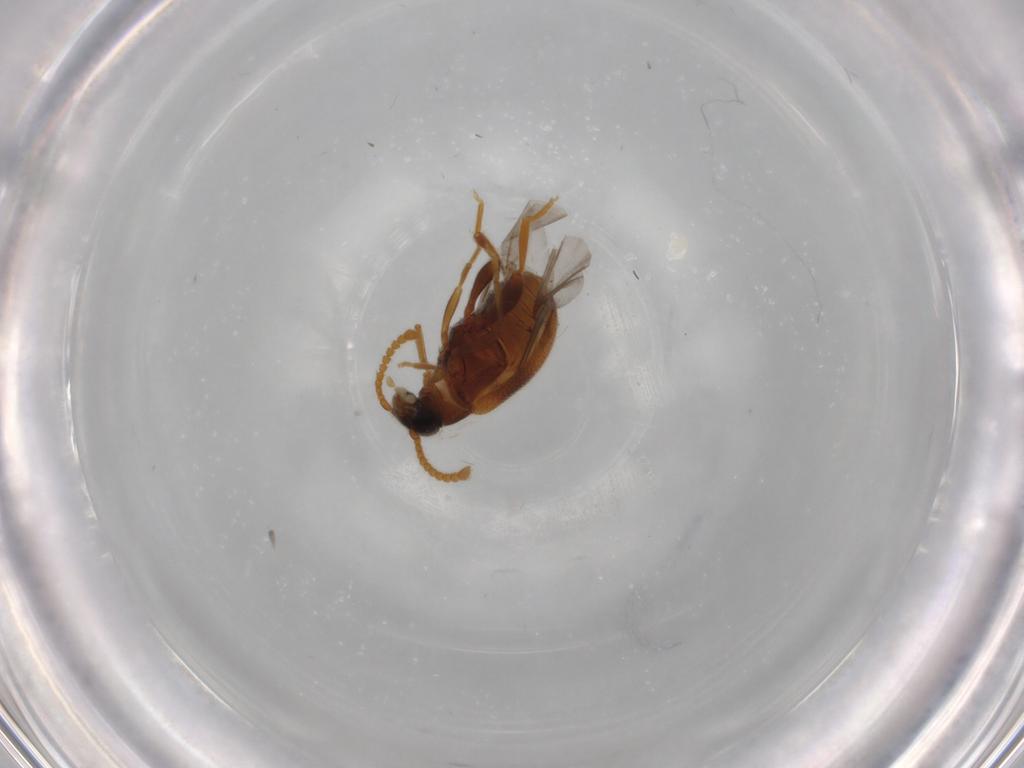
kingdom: Animalia
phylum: Arthropoda
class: Insecta
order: Coleoptera
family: Aderidae
